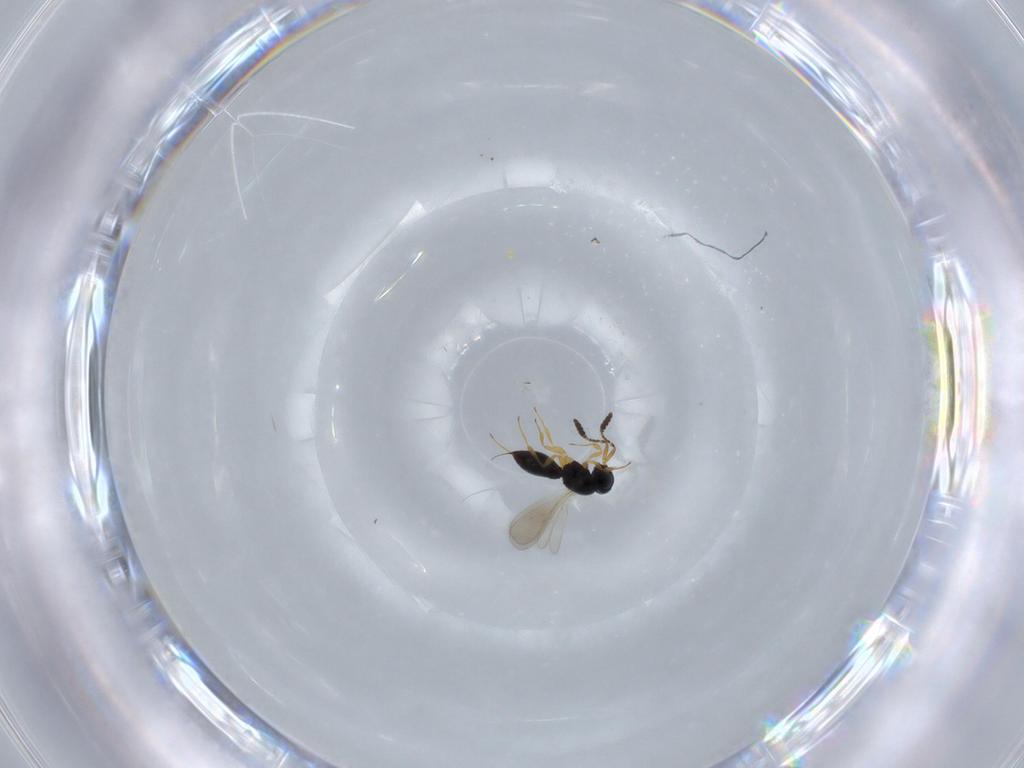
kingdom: Animalia
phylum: Arthropoda
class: Insecta
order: Hymenoptera
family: Scelionidae
